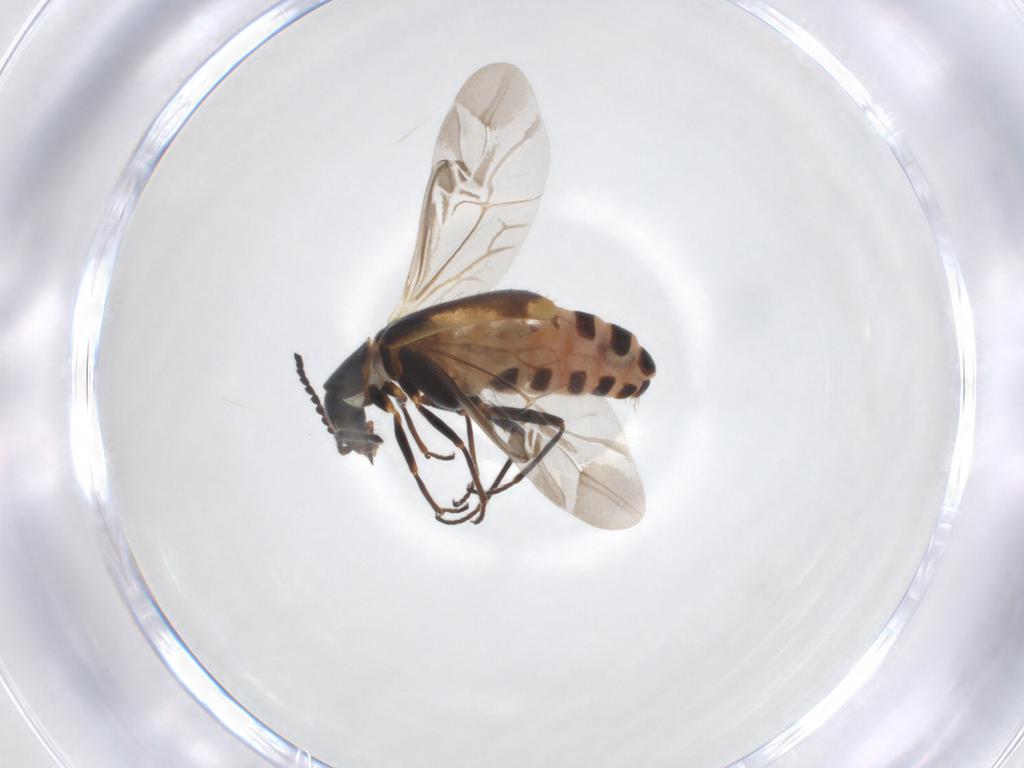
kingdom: Animalia
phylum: Arthropoda
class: Insecta
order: Coleoptera
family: Melyridae
